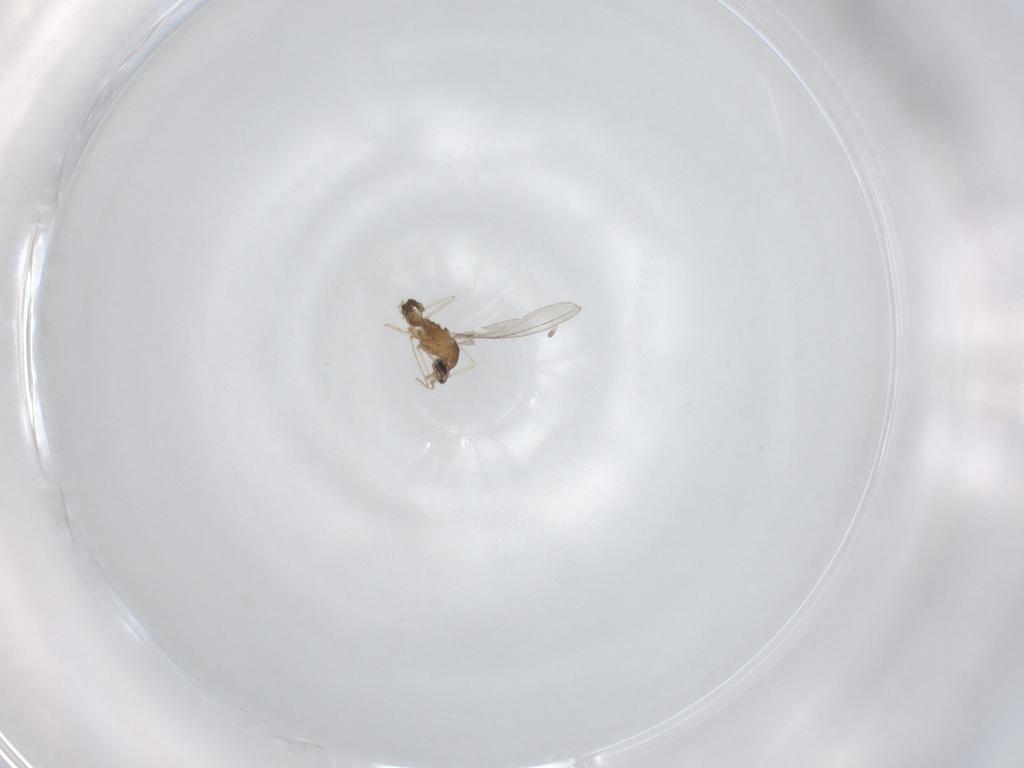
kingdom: Animalia
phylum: Arthropoda
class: Insecta
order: Diptera
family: Cecidomyiidae
